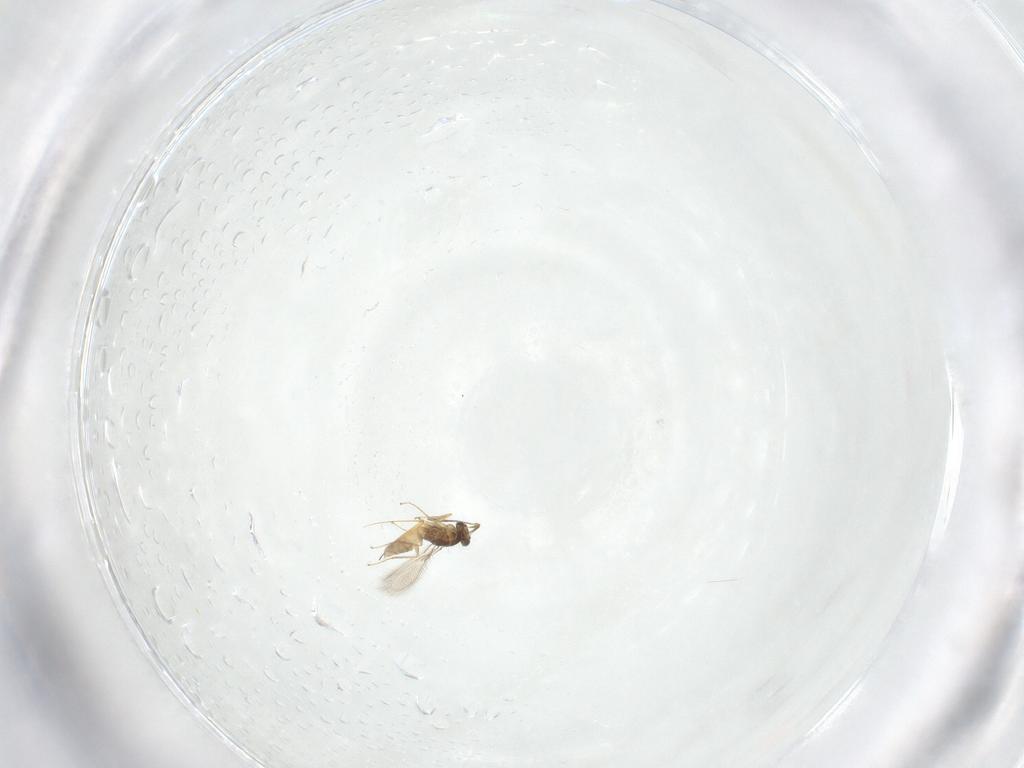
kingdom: Animalia
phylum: Arthropoda
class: Insecta
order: Hymenoptera
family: Mymaridae
